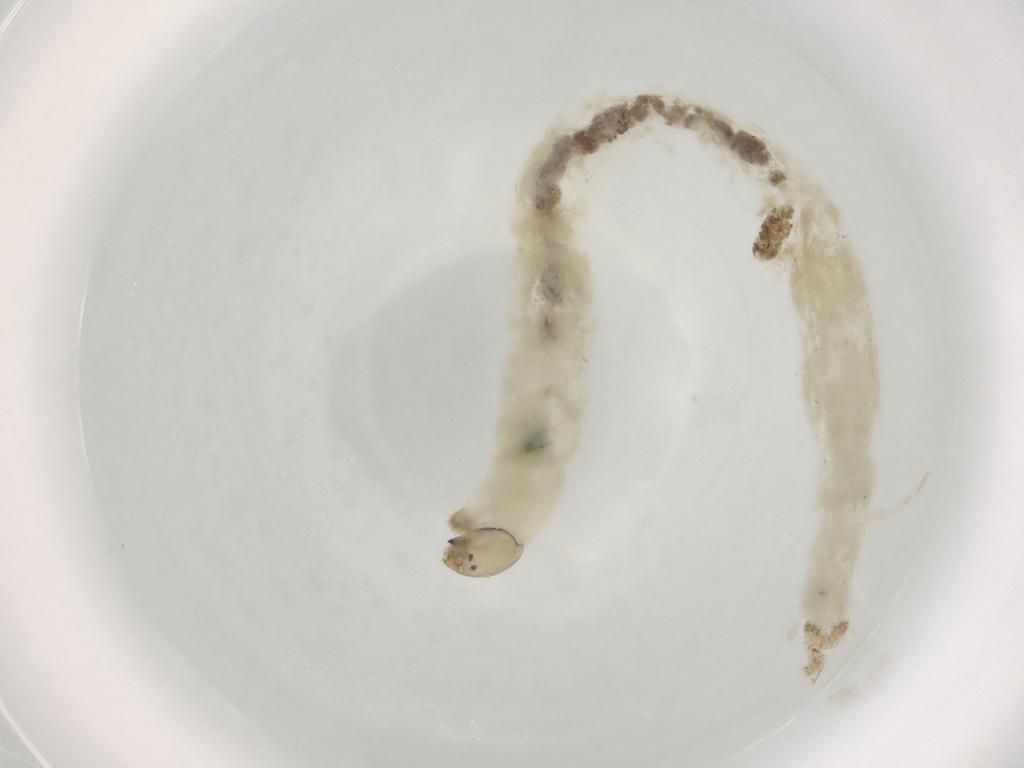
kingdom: Animalia
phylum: Arthropoda
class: Insecta
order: Diptera
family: Chironomidae
